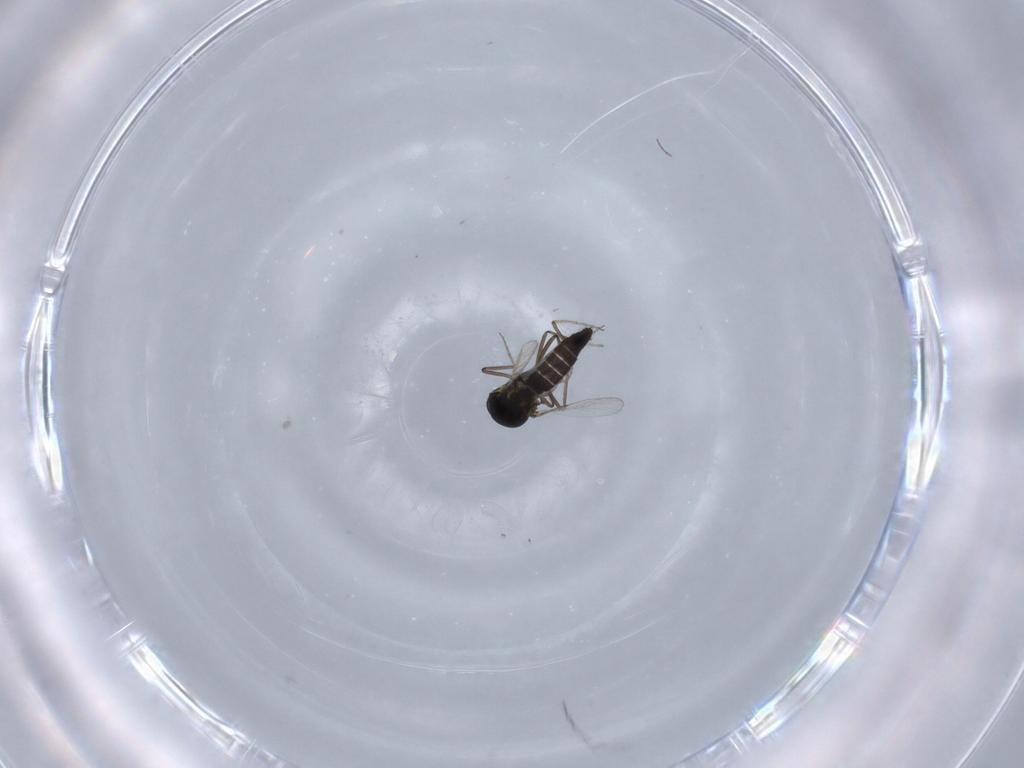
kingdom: Animalia
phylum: Arthropoda
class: Insecta
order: Diptera
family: Ceratopogonidae
